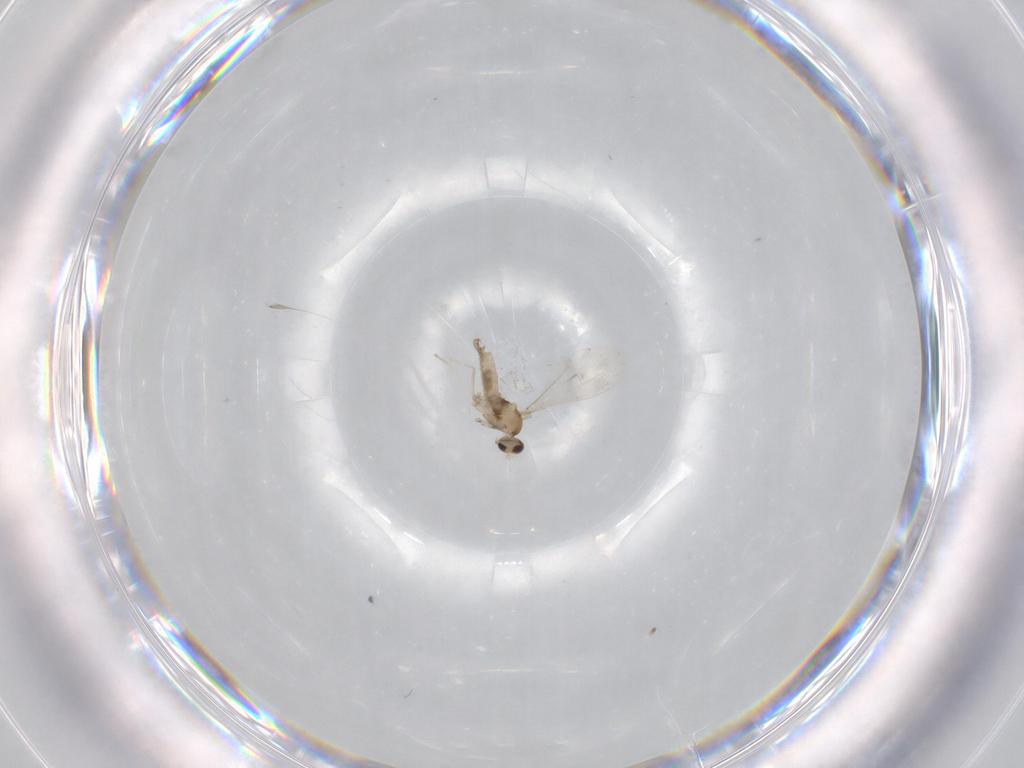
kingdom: Animalia
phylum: Arthropoda
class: Insecta
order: Diptera
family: Cecidomyiidae
